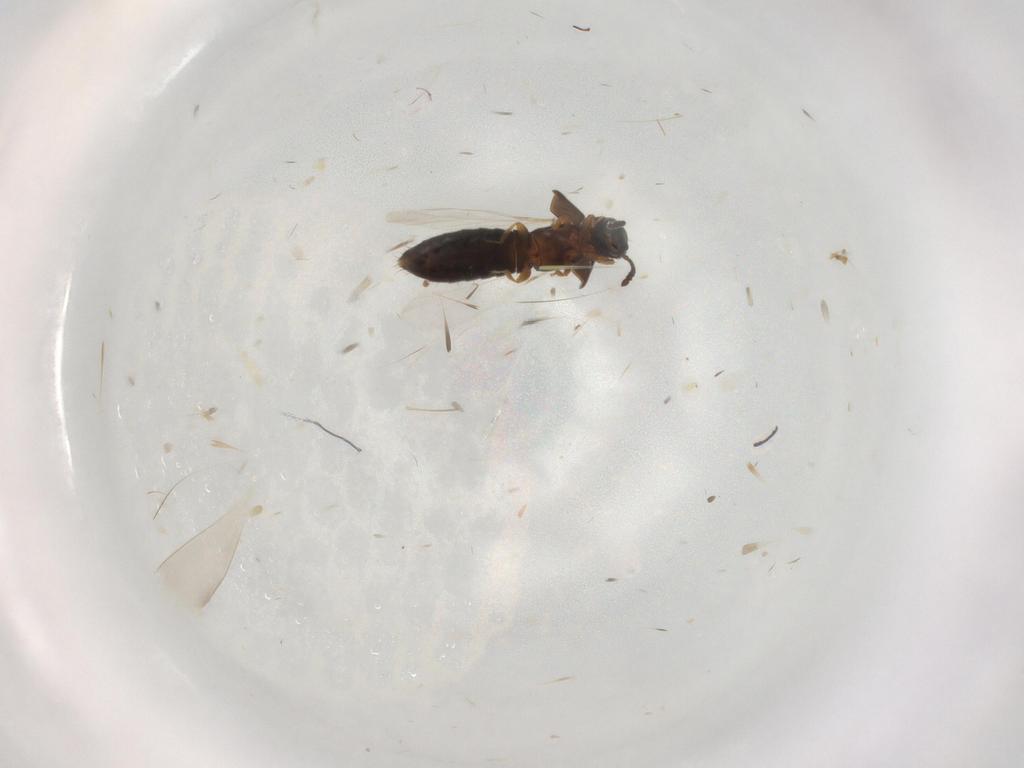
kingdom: Animalia
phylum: Arthropoda
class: Insecta
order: Coleoptera
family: Staphylinidae
